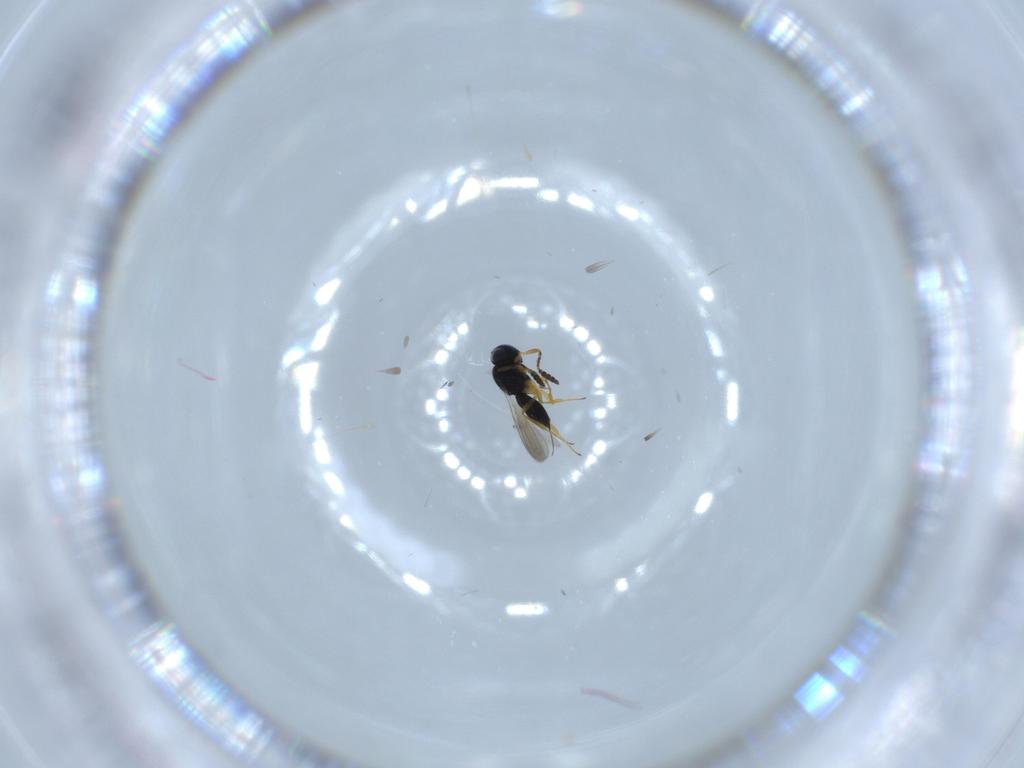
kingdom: Animalia
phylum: Arthropoda
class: Insecta
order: Hymenoptera
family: Scelionidae
